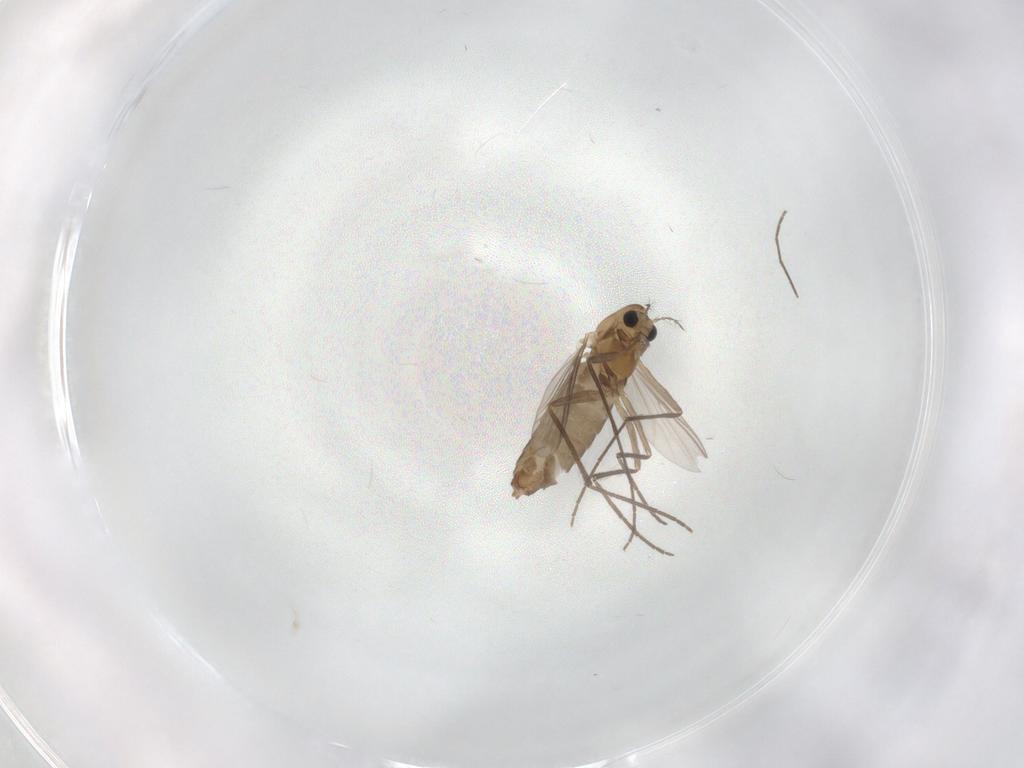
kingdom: Animalia
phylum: Arthropoda
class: Insecta
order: Diptera
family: Chironomidae
